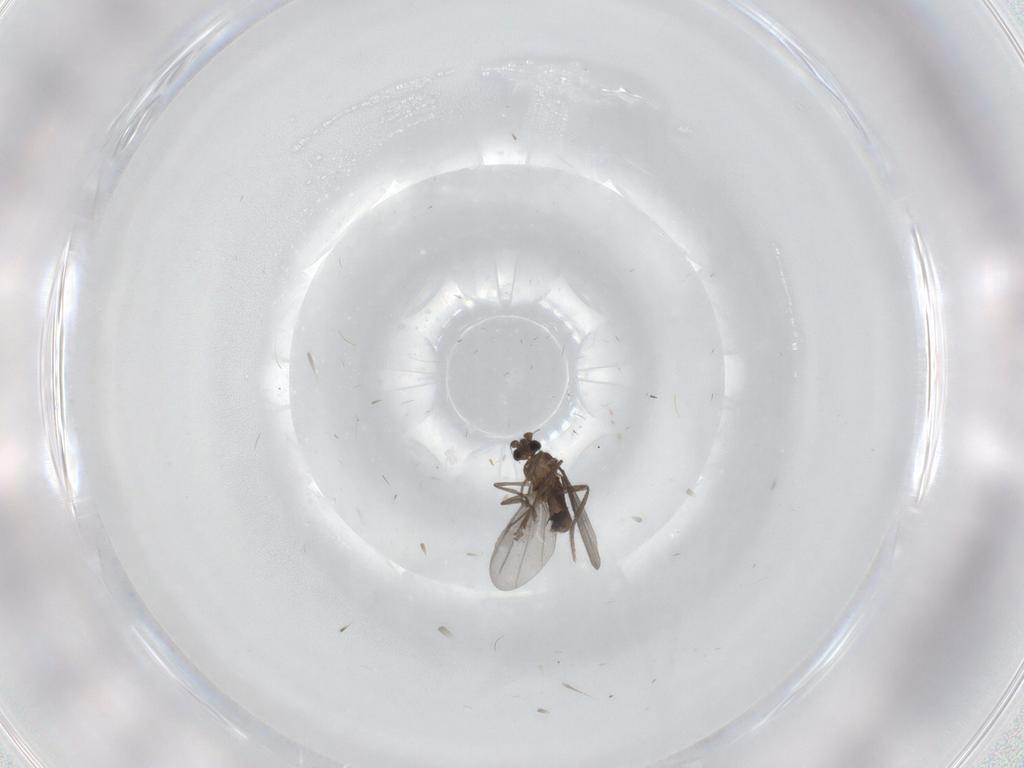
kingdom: Animalia
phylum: Arthropoda
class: Insecta
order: Diptera
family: Phoridae
